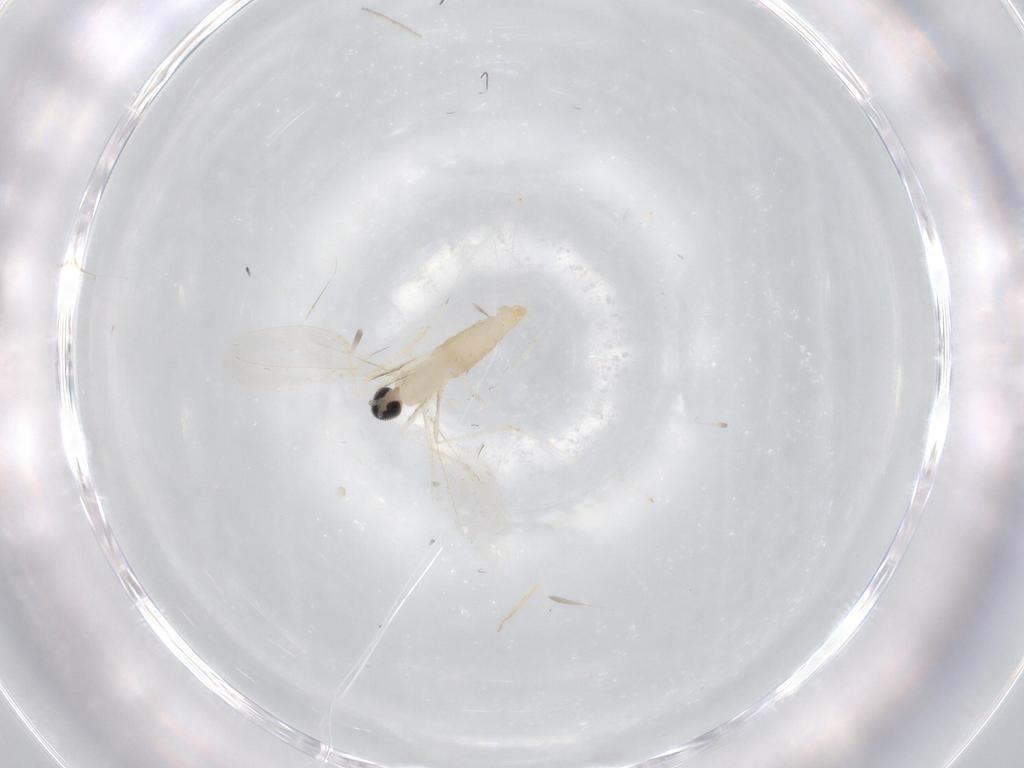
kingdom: Animalia
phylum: Arthropoda
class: Insecta
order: Diptera
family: Cecidomyiidae
